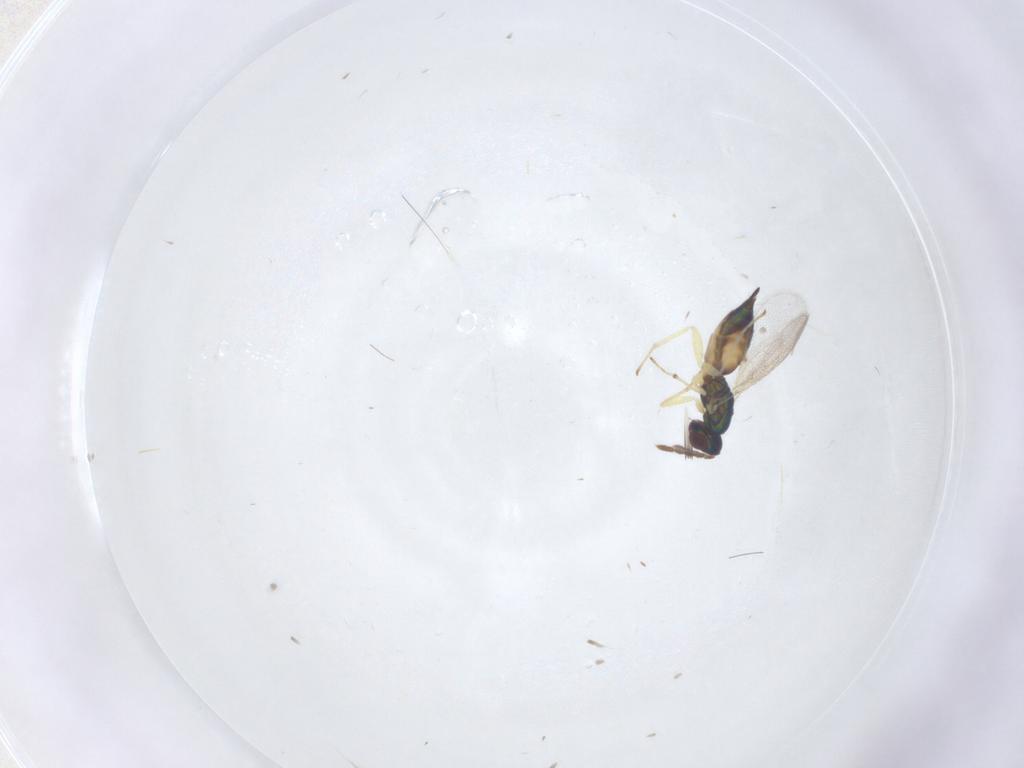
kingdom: Animalia
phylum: Arthropoda
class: Insecta
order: Hymenoptera
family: Eulophidae
